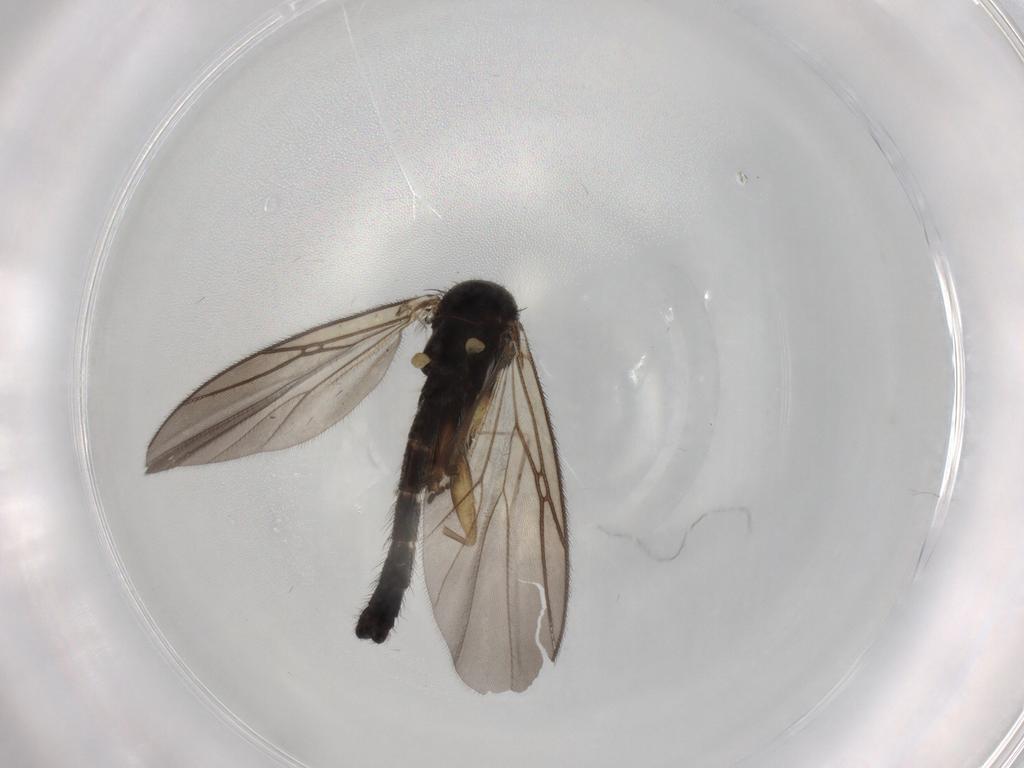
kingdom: Animalia
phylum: Arthropoda
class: Insecta
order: Diptera
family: Mycetophilidae
